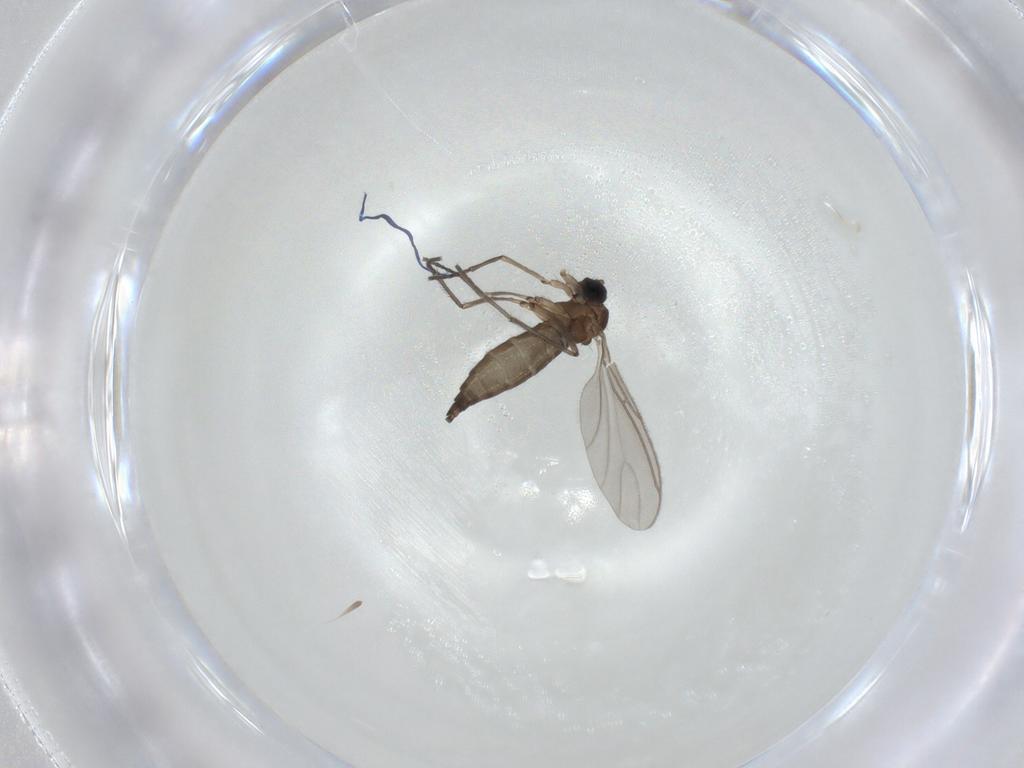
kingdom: Animalia
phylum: Arthropoda
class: Insecta
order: Diptera
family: Sciaridae
